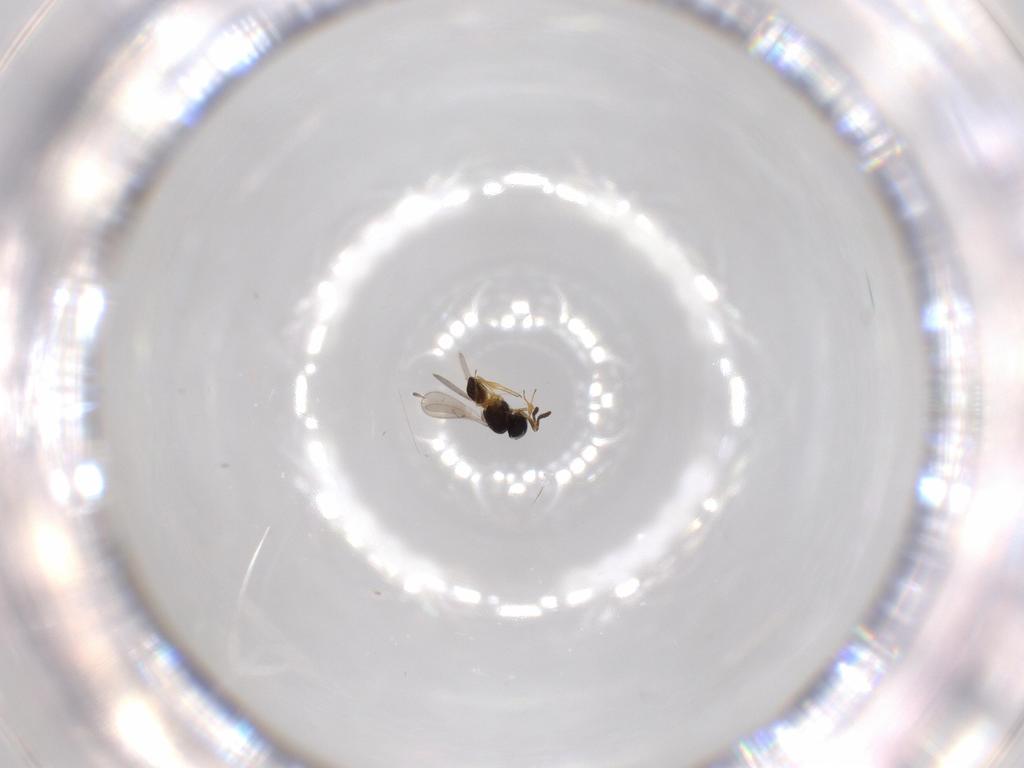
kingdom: Animalia
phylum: Arthropoda
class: Insecta
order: Hymenoptera
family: Scelionidae
